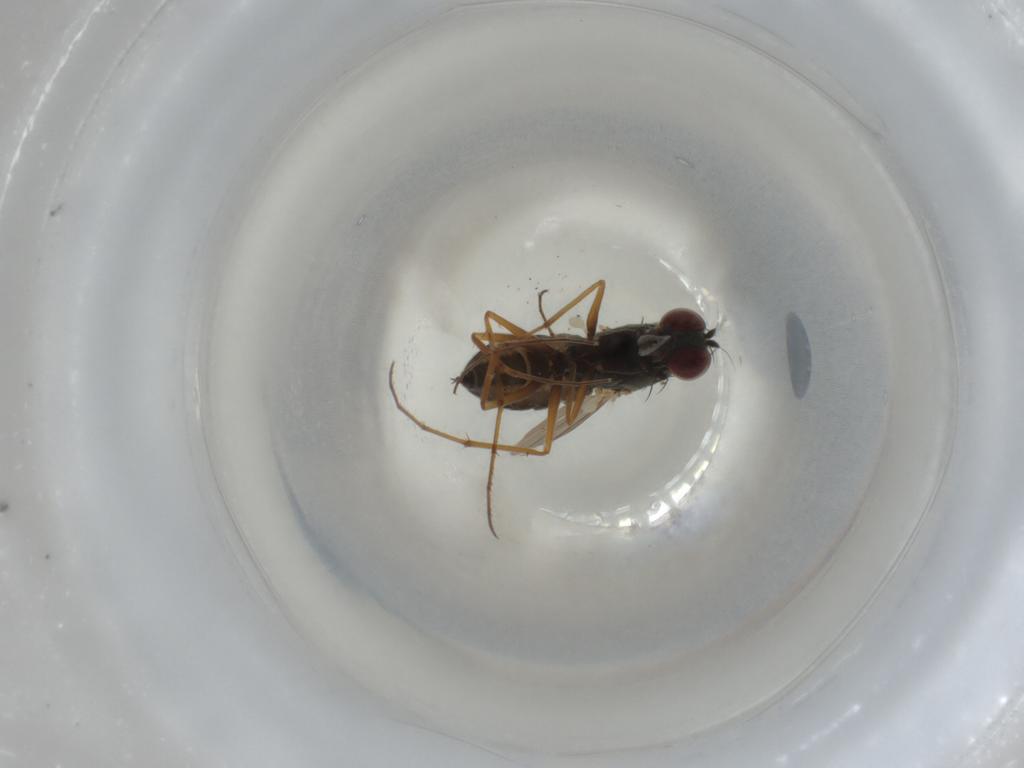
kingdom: Animalia
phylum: Arthropoda
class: Insecta
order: Diptera
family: Dolichopodidae
